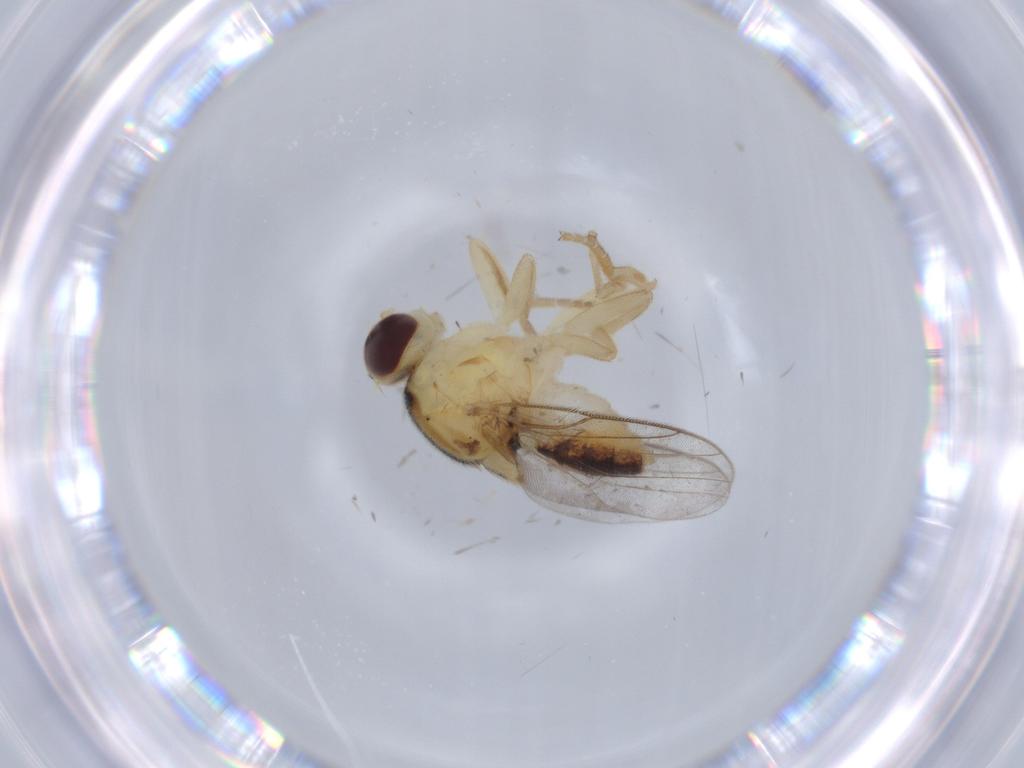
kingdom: Animalia
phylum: Arthropoda
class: Insecta
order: Diptera
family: Chloropidae
